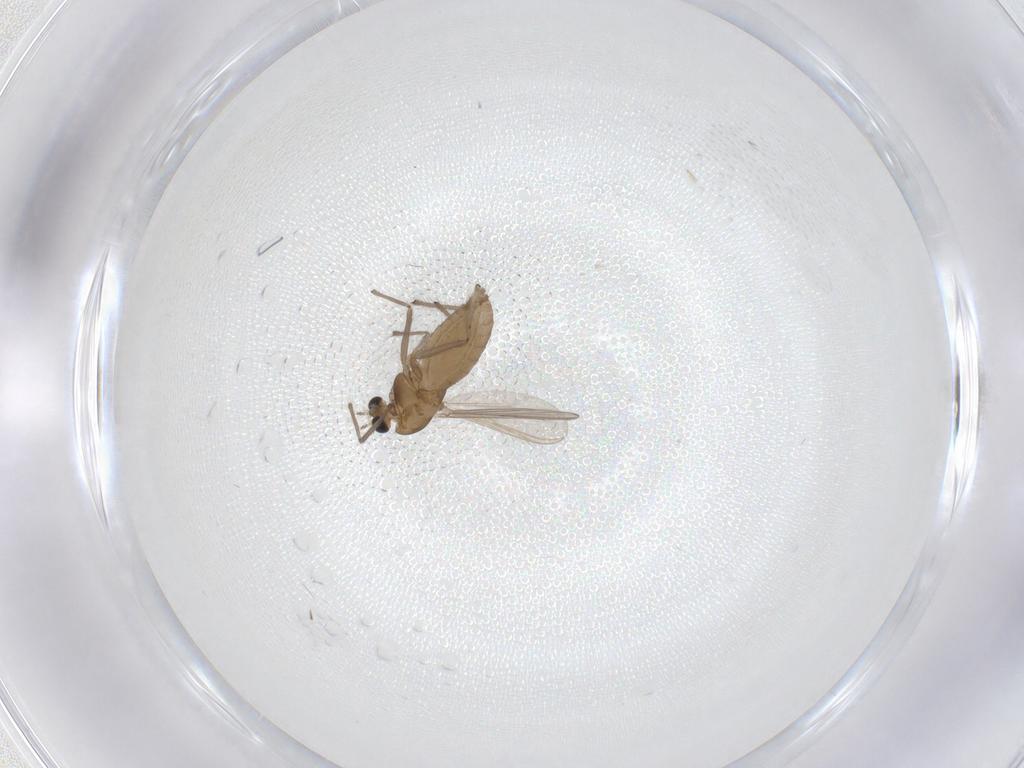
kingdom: Animalia
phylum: Arthropoda
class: Insecta
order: Diptera
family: Chironomidae
